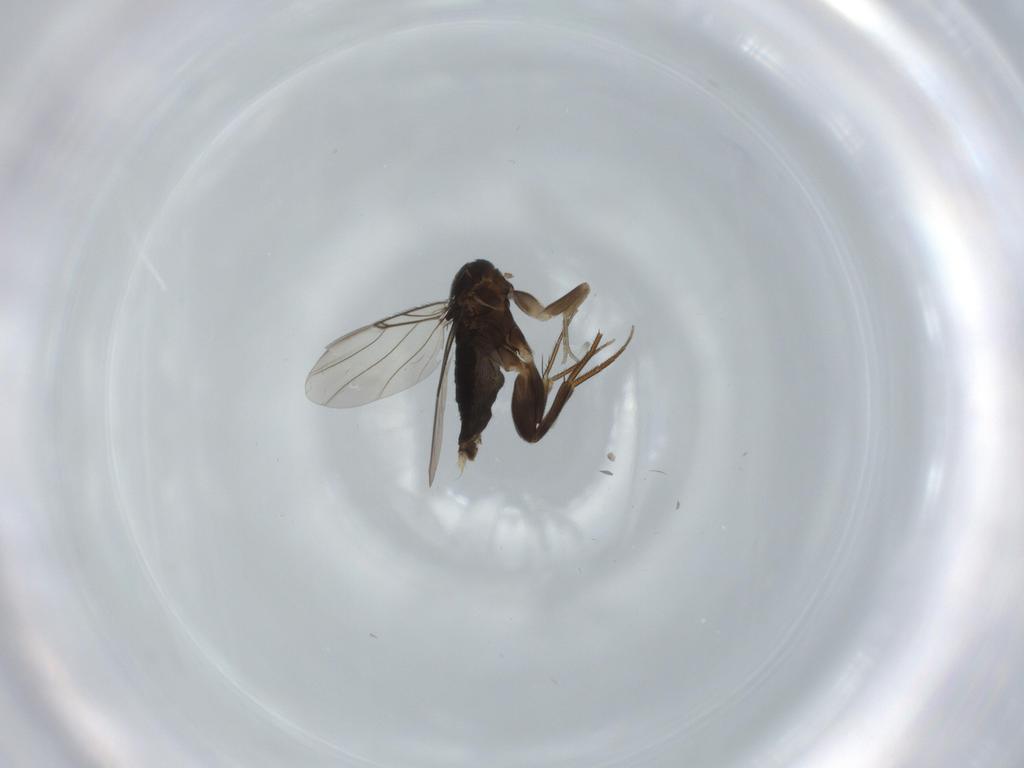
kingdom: Animalia
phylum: Arthropoda
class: Insecta
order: Diptera
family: Phoridae
